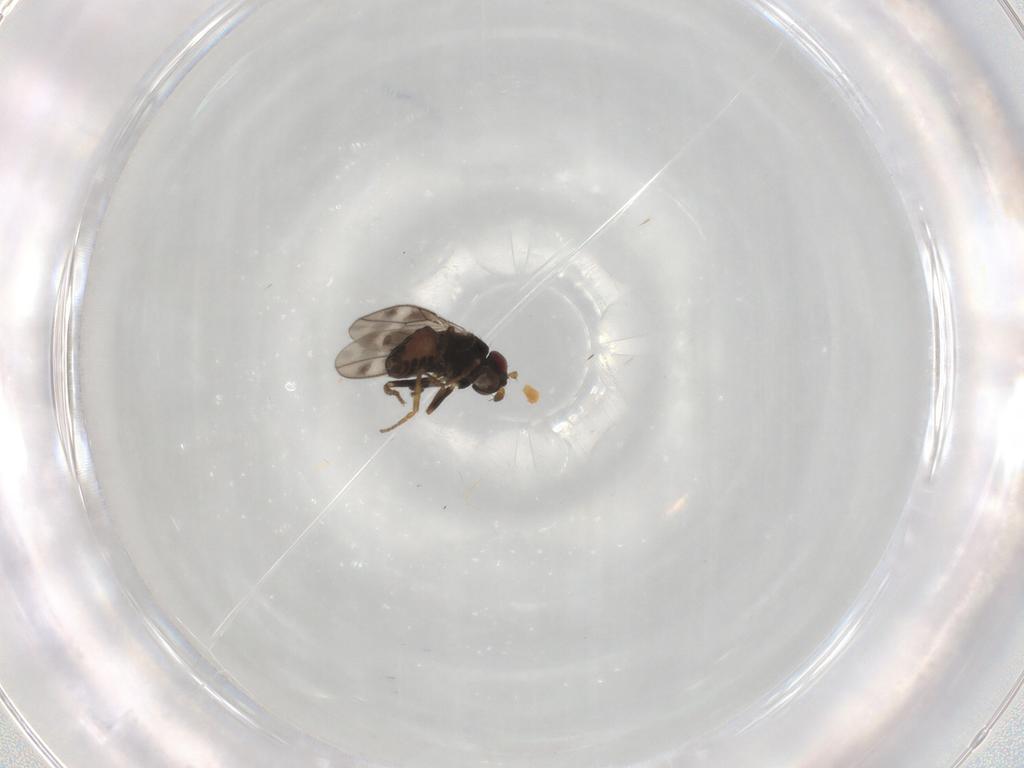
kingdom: Animalia
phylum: Arthropoda
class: Insecta
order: Diptera
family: Sphaeroceridae
